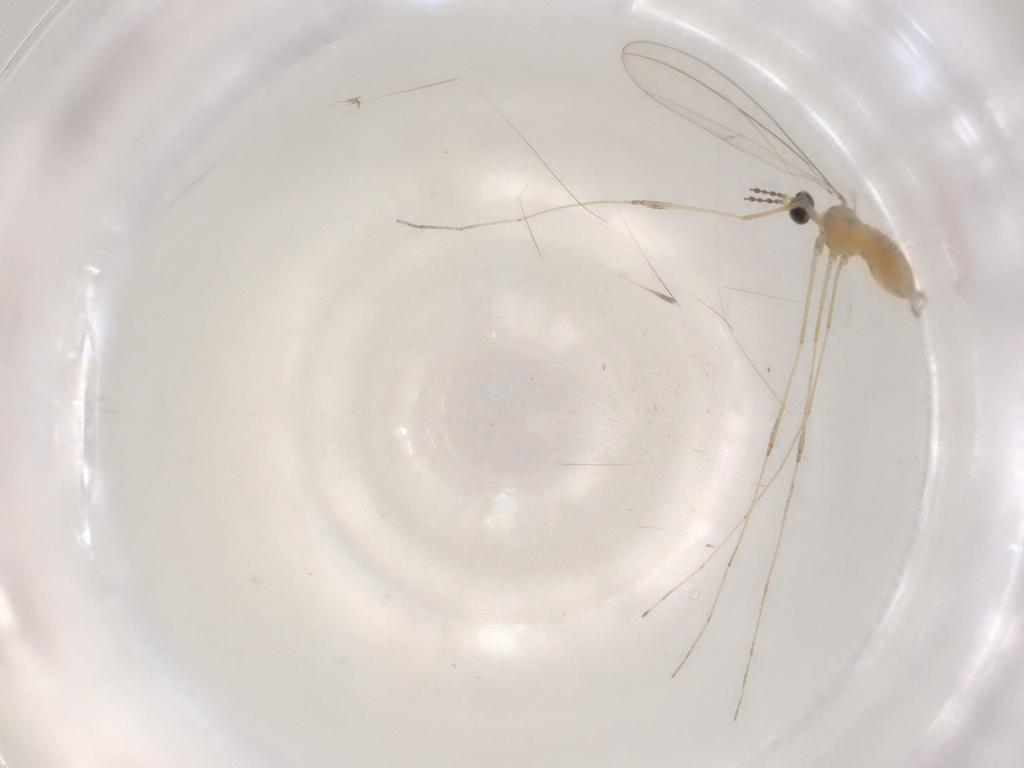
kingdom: Animalia
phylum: Arthropoda
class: Insecta
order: Diptera
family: Phoridae
